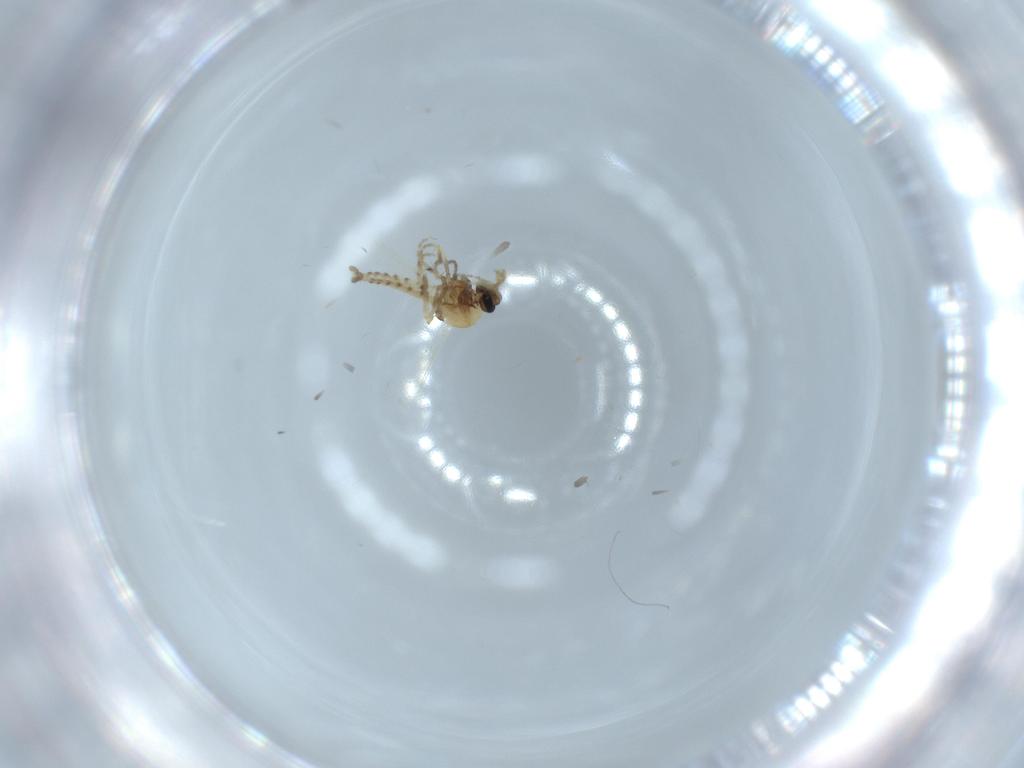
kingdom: Animalia
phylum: Arthropoda
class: Insecta
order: Diptera
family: Ceratopogonidae
